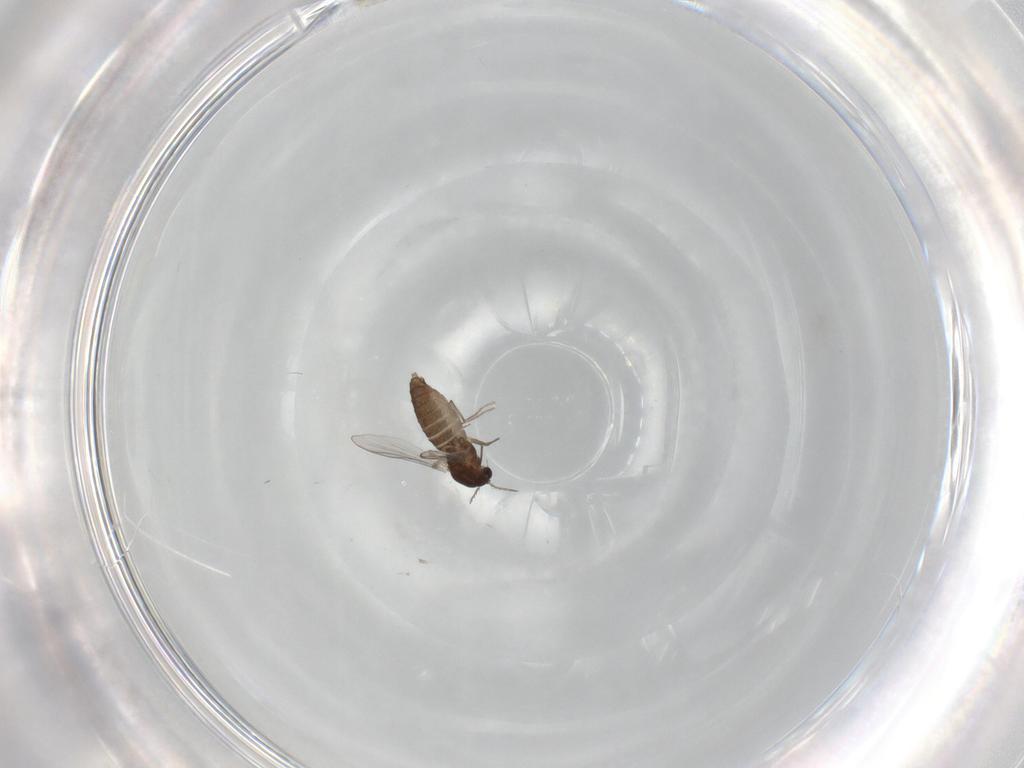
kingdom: Animalia
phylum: Arthropoda
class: Insecta
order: Diptera
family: Chironomidae
